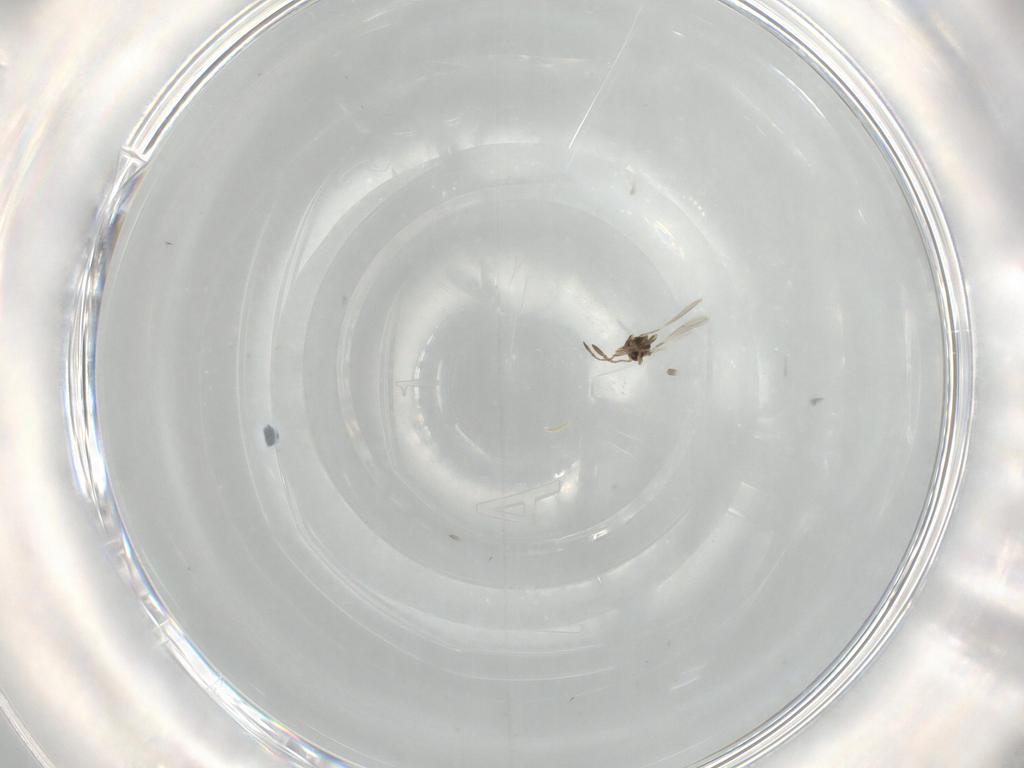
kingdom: Animalia
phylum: Arthropoda
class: Insecta
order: Hymenoptera
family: Mymaridae
